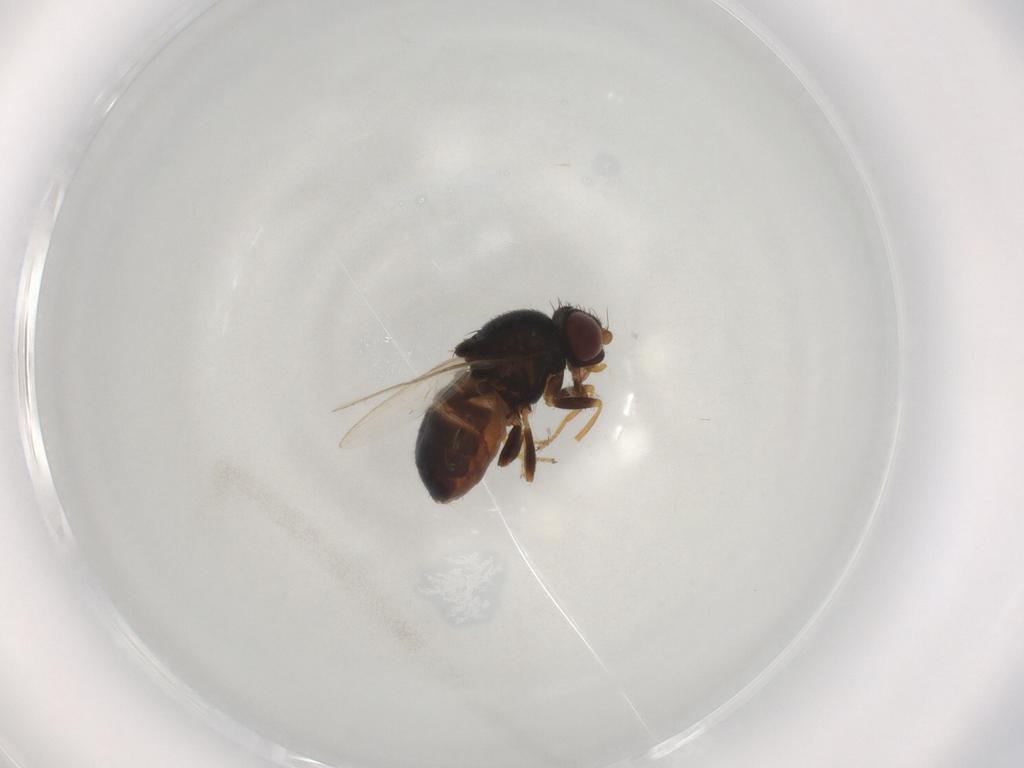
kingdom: Animalia
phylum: Arthropoda
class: Insecta
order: Diptera
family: Chloropidae
